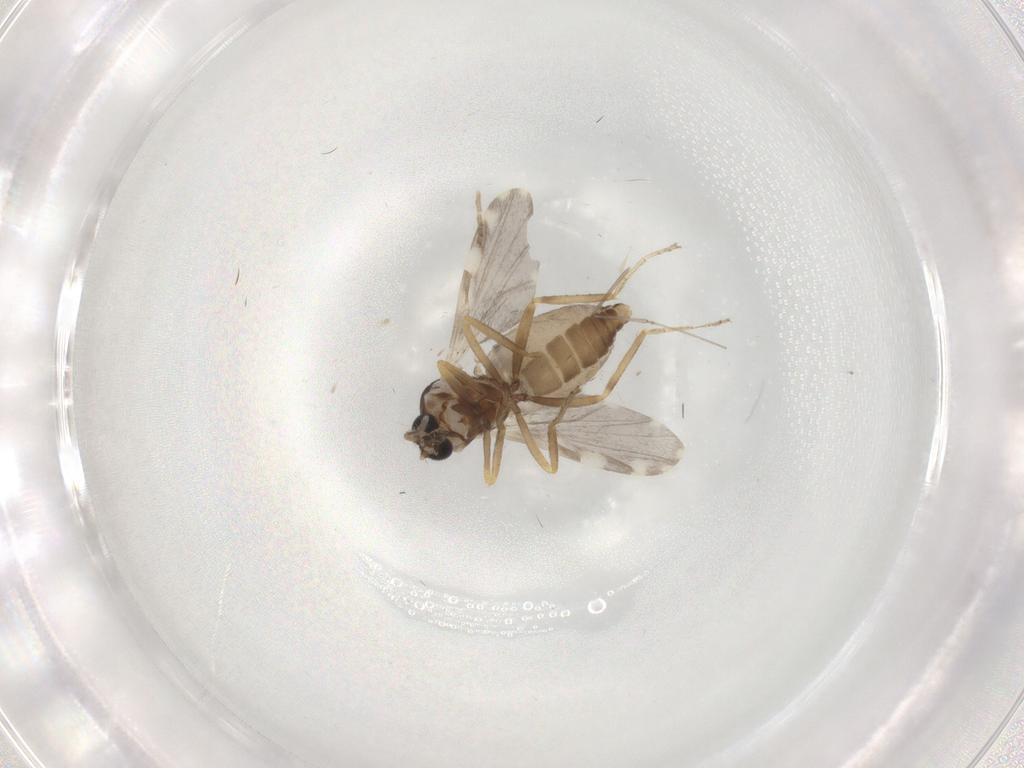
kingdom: Animalia
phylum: Arthropoda
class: Insecta
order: Diptera
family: Ceratopogonidae
